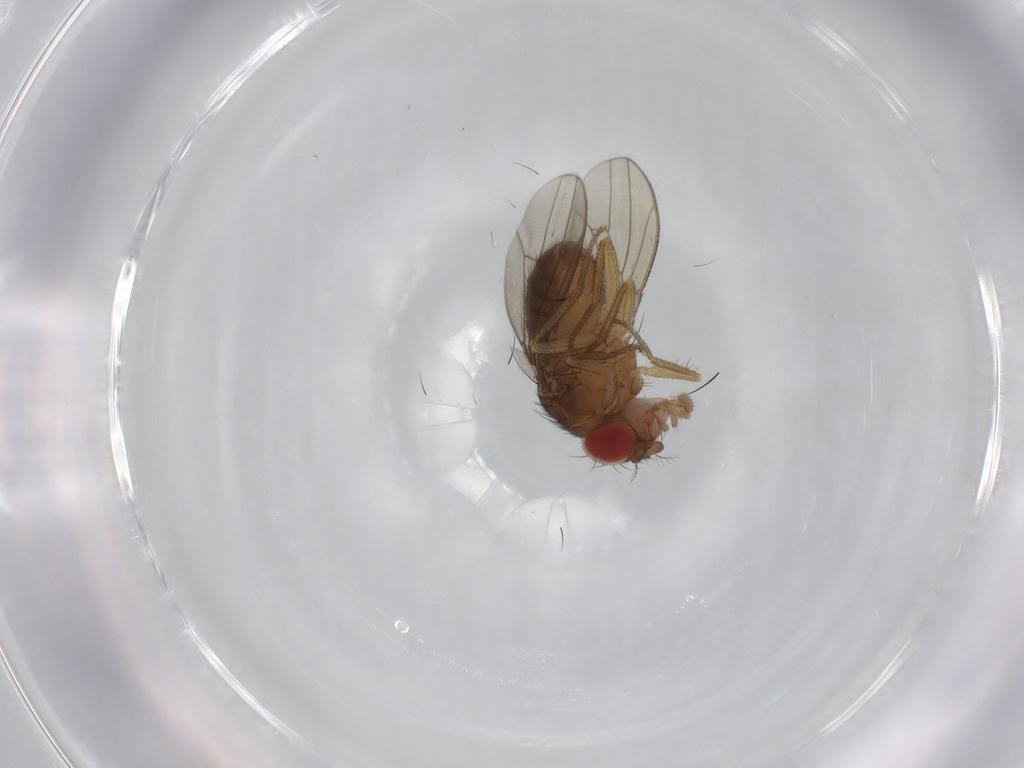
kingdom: Animalia
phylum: Arthropoda
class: Insecta
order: Diptera
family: Drosophilidae
